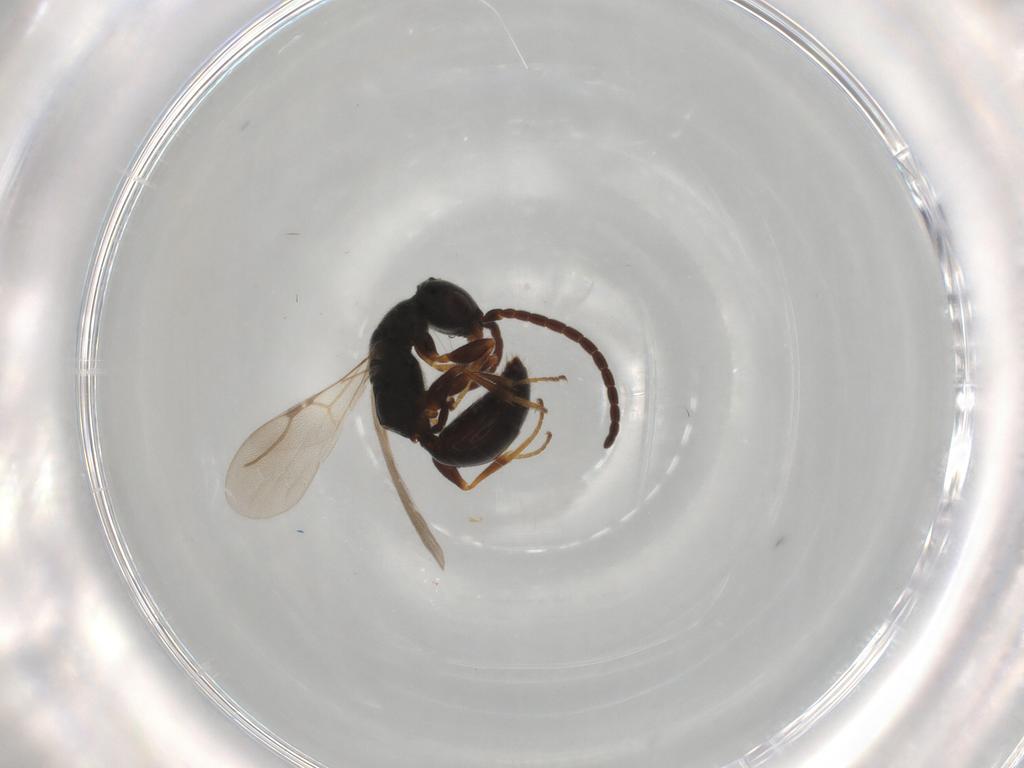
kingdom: Animalia
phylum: Arthropoda
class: Insecta
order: Hymenoptera
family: Bethylidae
